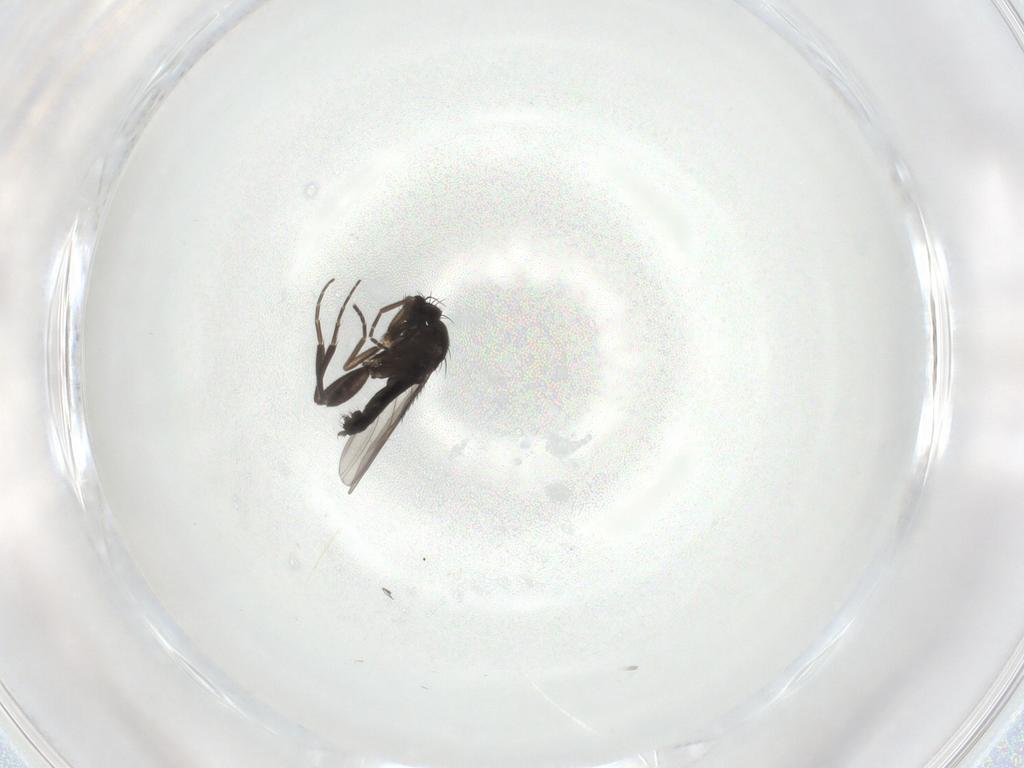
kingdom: Animalia
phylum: Arthropoda
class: Insecta
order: Diptera
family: Phoridae
